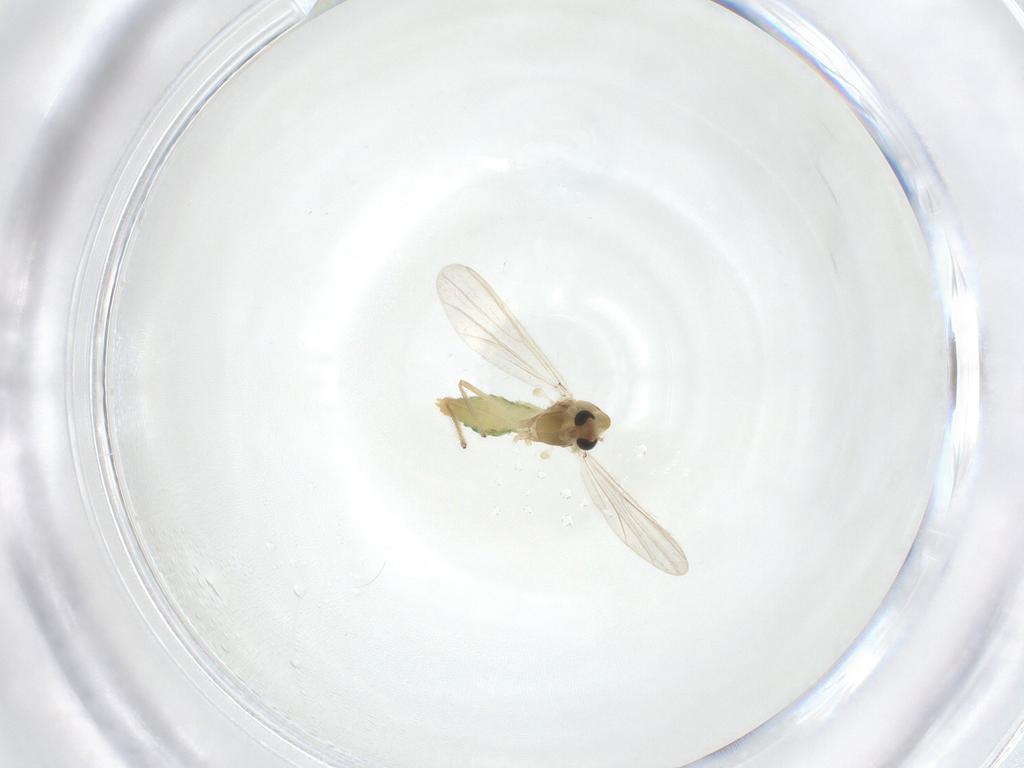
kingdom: Animalia
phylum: Arthropoda
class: Insecta
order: Diptera
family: Chironomidae
